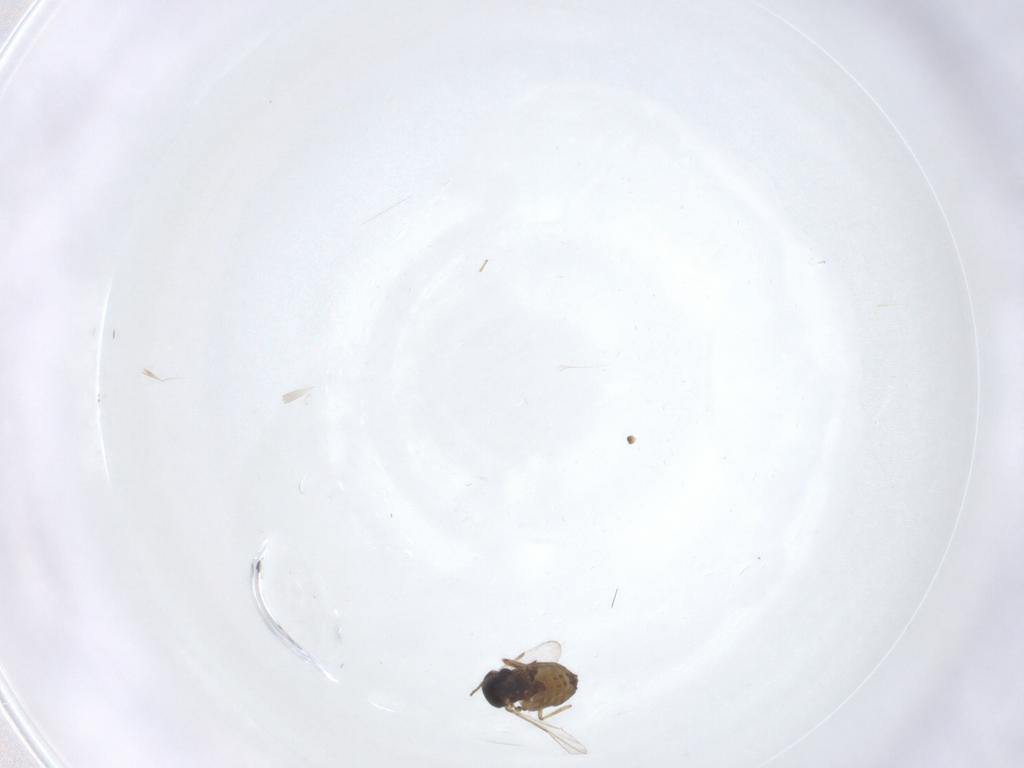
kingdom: Animalia
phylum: Arthropoda
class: Insecta
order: Diptera
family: Ceratopogonidae
